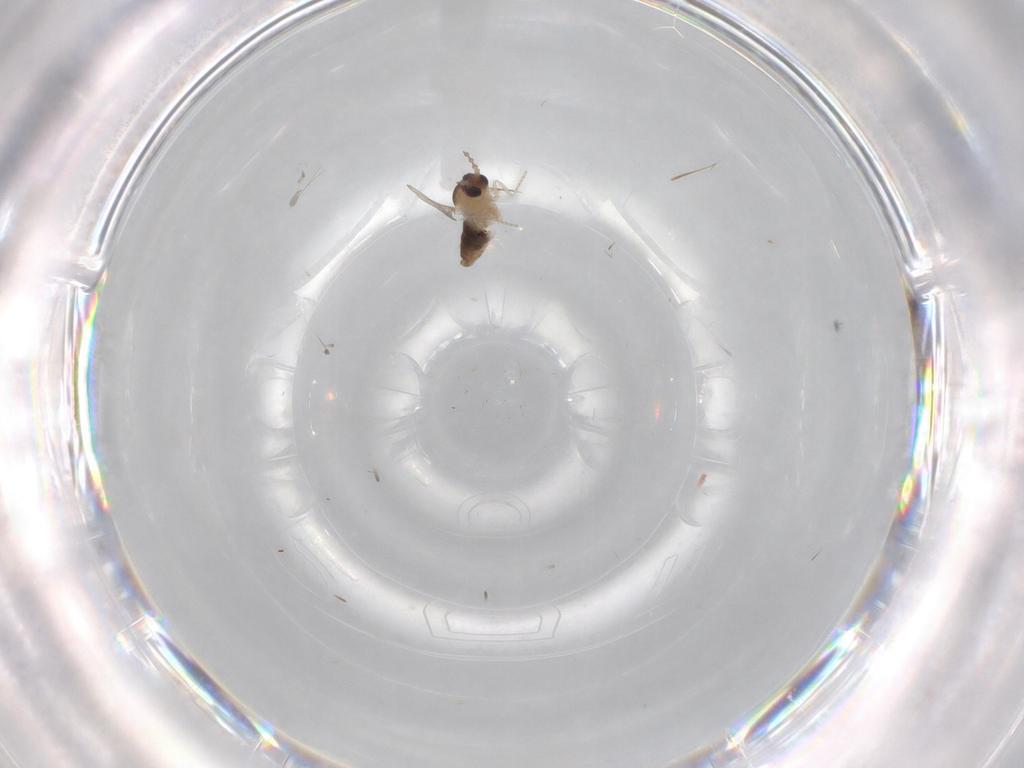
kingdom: Animalia
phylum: Arthropoda
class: Insecta
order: Diptera
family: Cecidomyiidae
